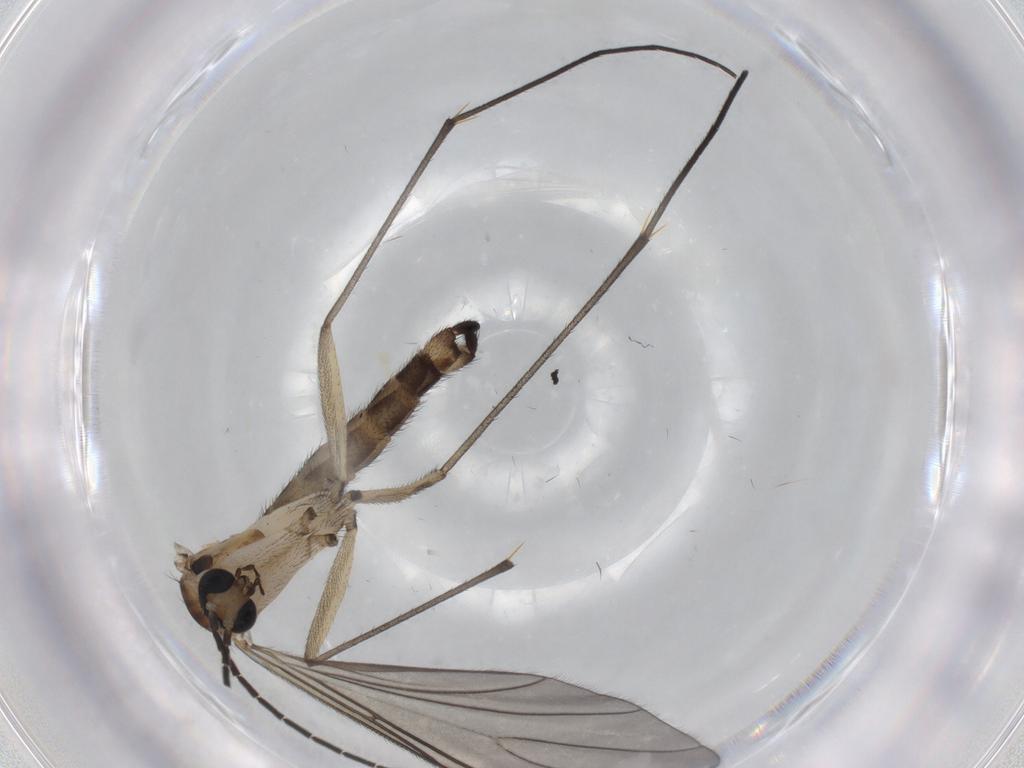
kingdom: Animalia
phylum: Arthropoda
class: Insecta
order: Diptera
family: Sciaridae
